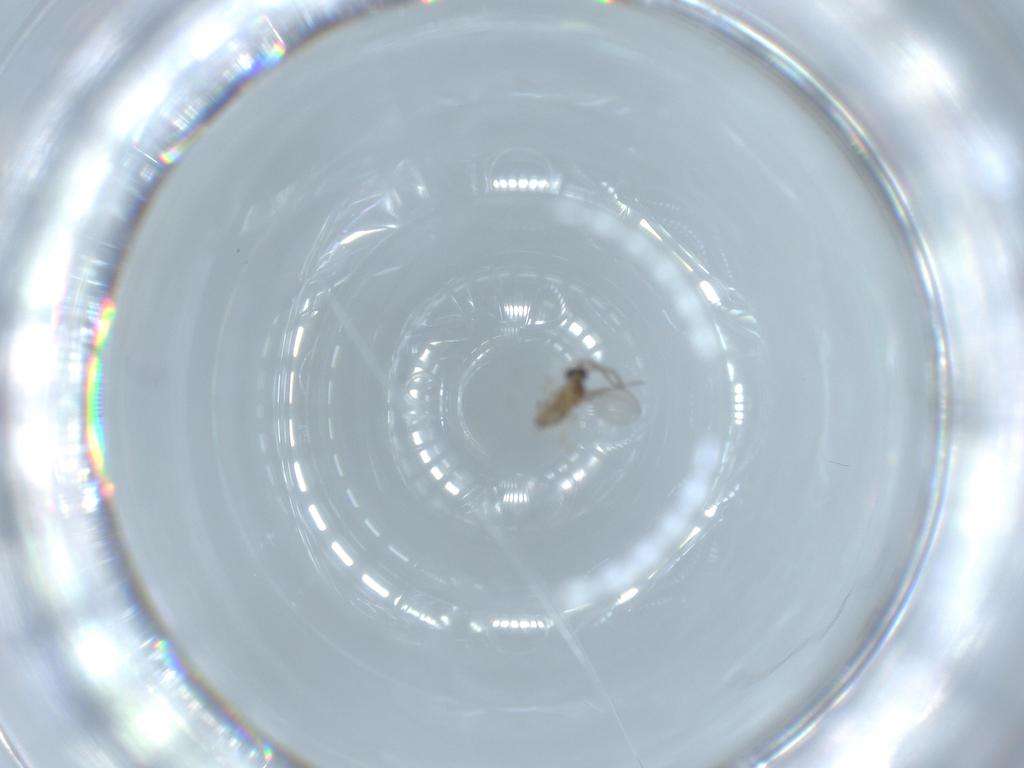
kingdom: Animalia
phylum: Arthropoda
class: Insecta
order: Diptera
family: Cecidomyiidae
